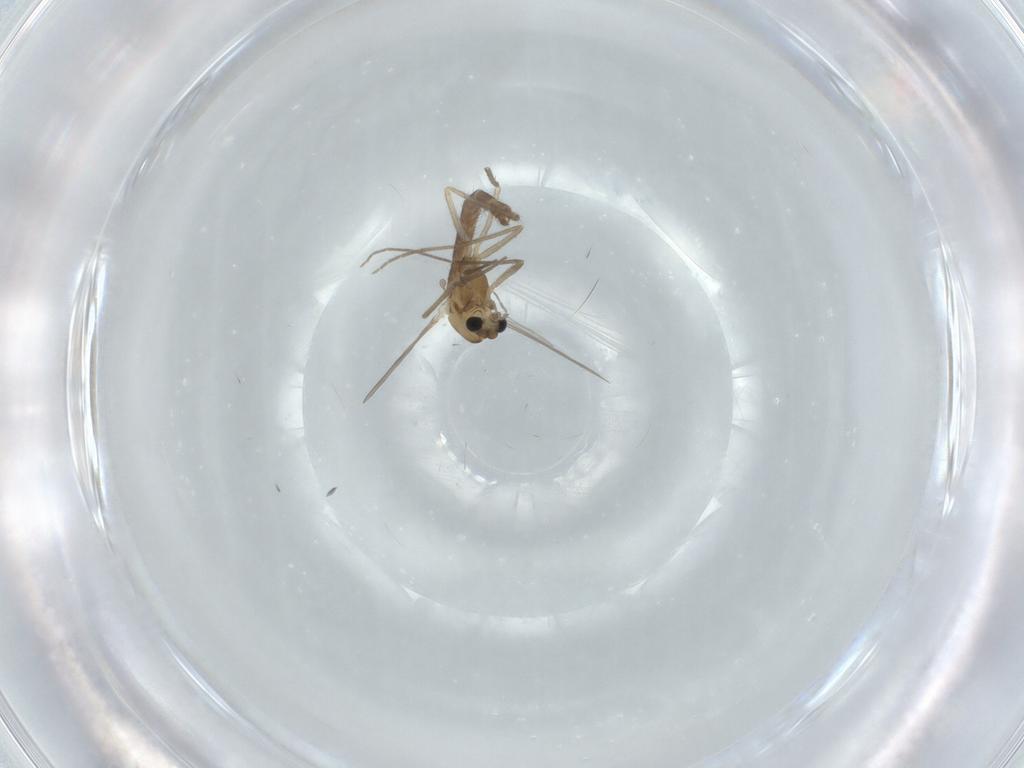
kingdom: Animalia
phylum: Arthropoda
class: Insecta
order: Diptera
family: Chironomidae
